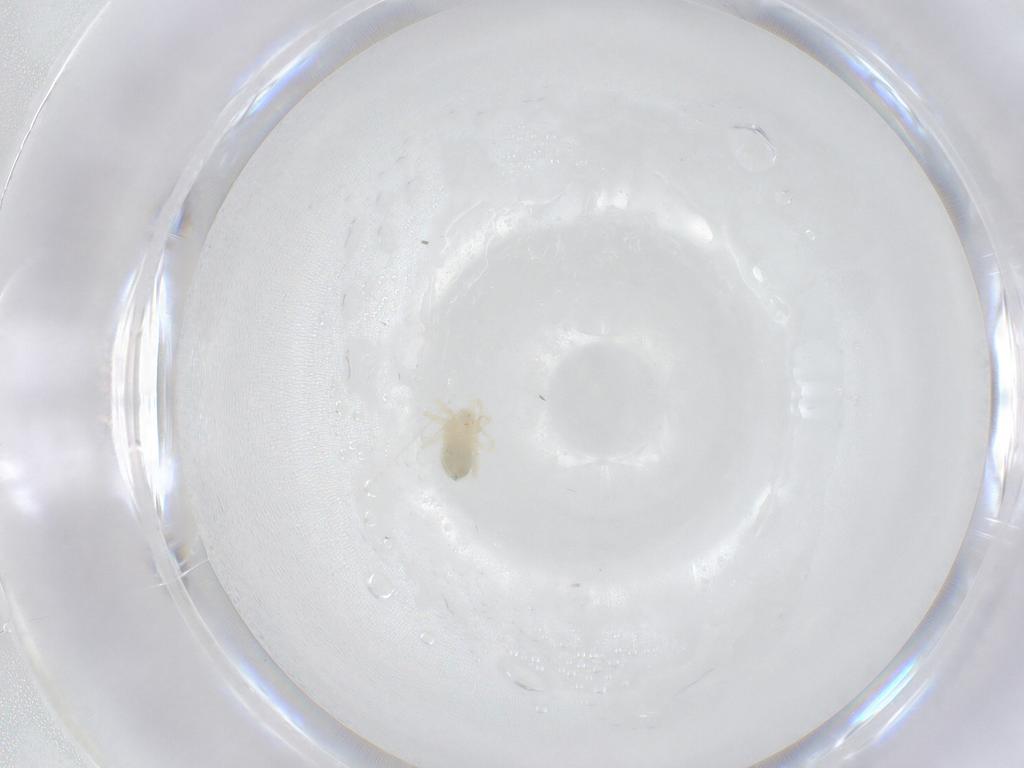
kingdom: Animalia
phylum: Arthropoda
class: Arachnida
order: Trombidiformes
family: Anystidae
